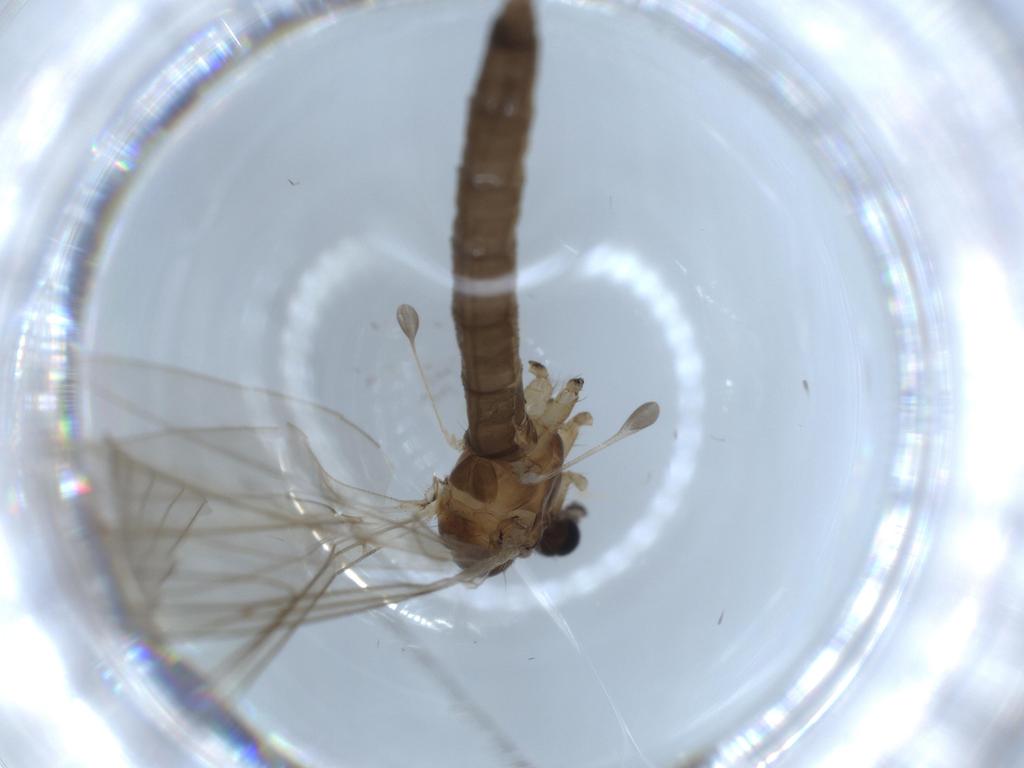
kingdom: Animalia
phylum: Arthropoda
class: Insecta
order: Diptera
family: Trichoceridae
